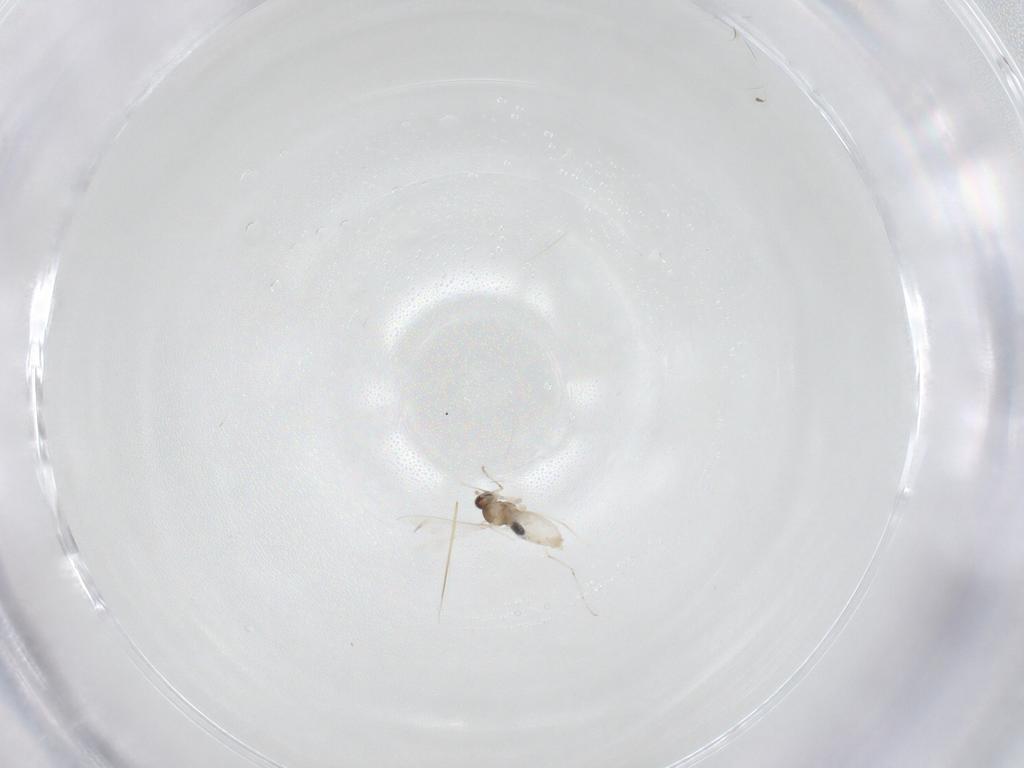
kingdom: Animalia
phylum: Arthropoda
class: Insecta
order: Diptera
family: Cecidomyiidae
